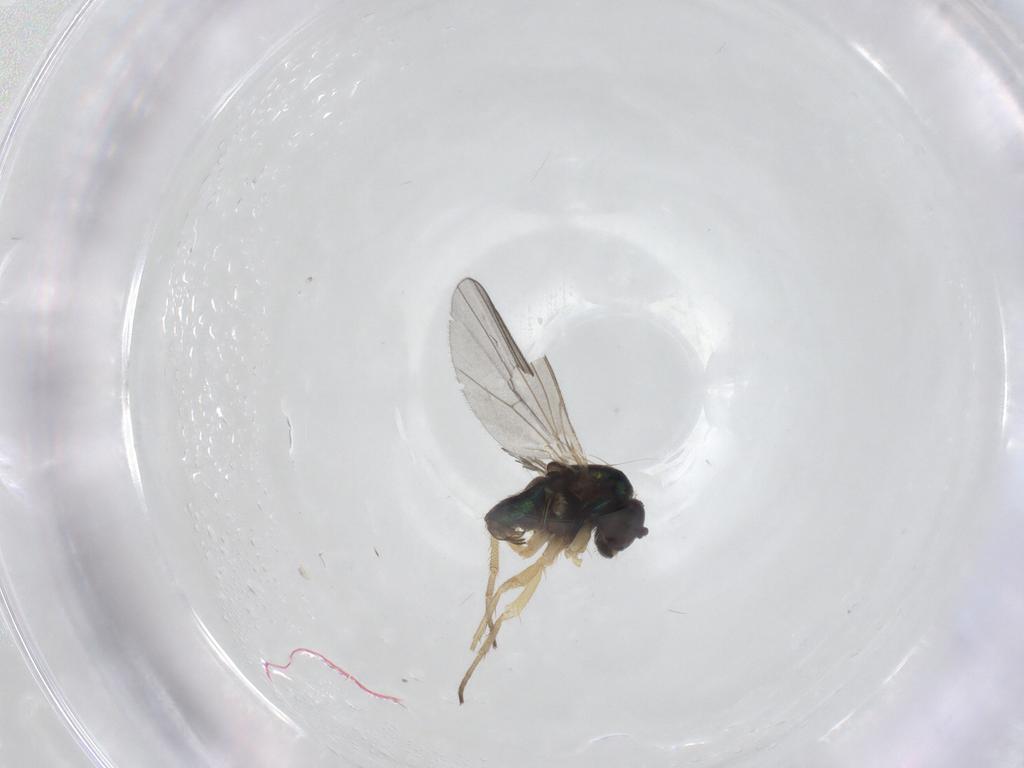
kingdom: Animalia
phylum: Arthropoda
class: Insecta
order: Diptera
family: Dolichopodidae
